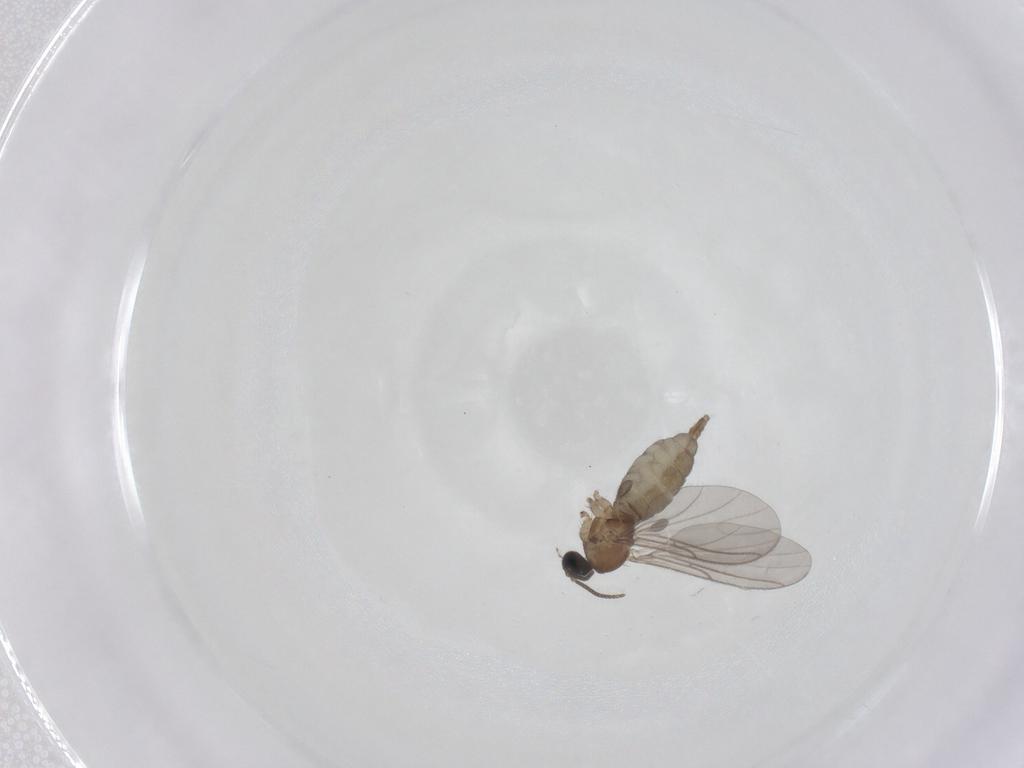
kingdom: Animalia
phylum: Arthropoda
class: Insecta
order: Diptera
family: Sciaridae
